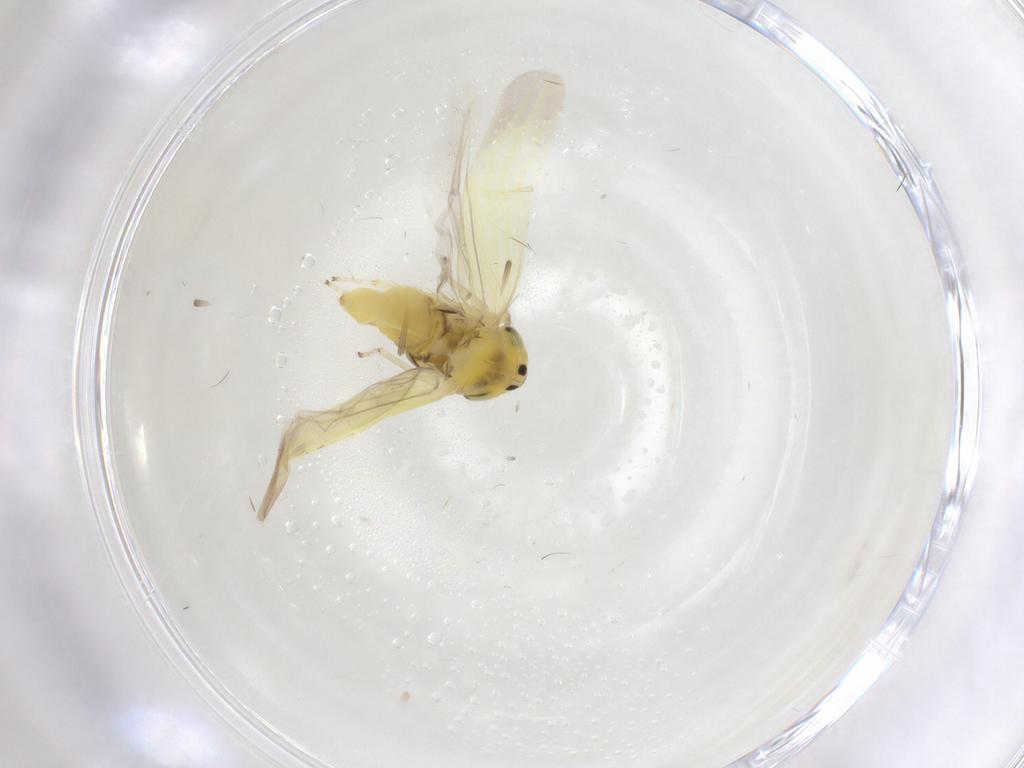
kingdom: Animalia
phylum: Arthropoda
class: Insecta
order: Hemiptera
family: Cicadellidae
